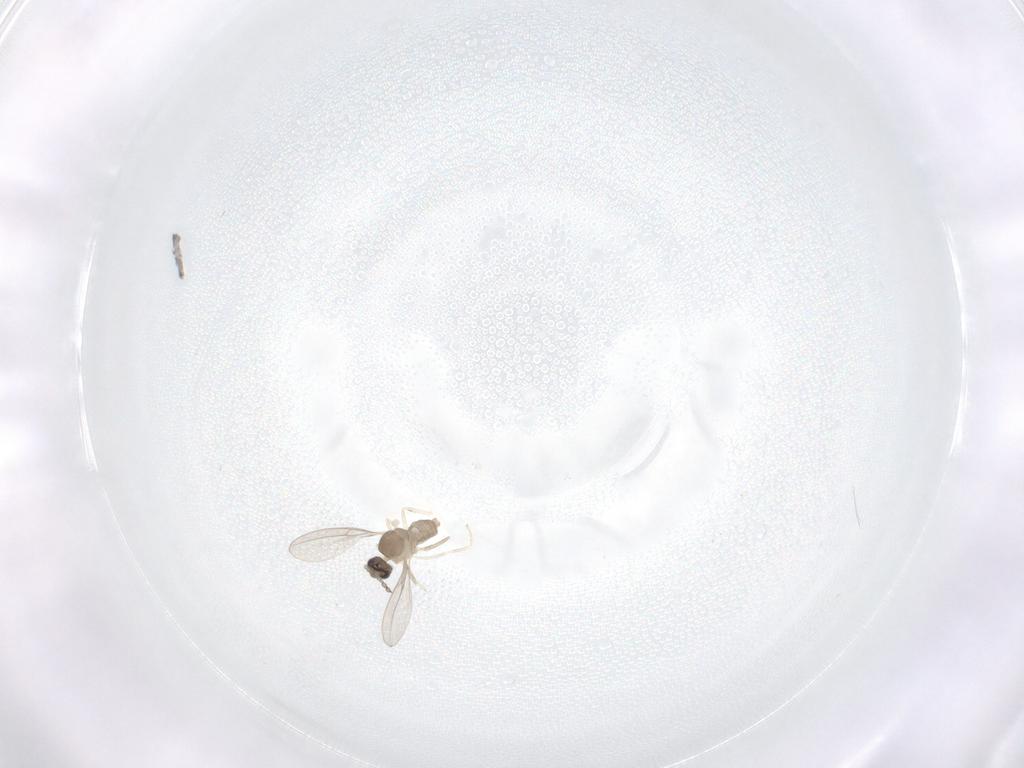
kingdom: Animalia
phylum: Arthropoda
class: Insecta
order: Diptera
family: Cecidomyiidae
